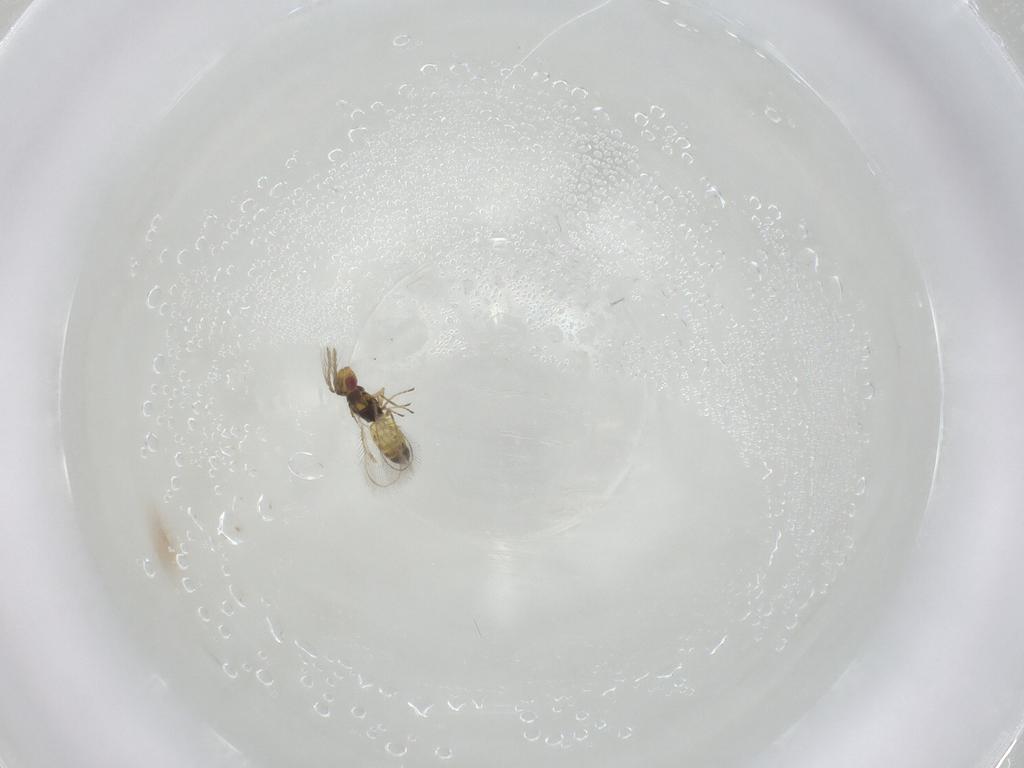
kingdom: Animalia
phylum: Arthropoda
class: Insecta
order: Hymenoptera
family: Eulophidae
